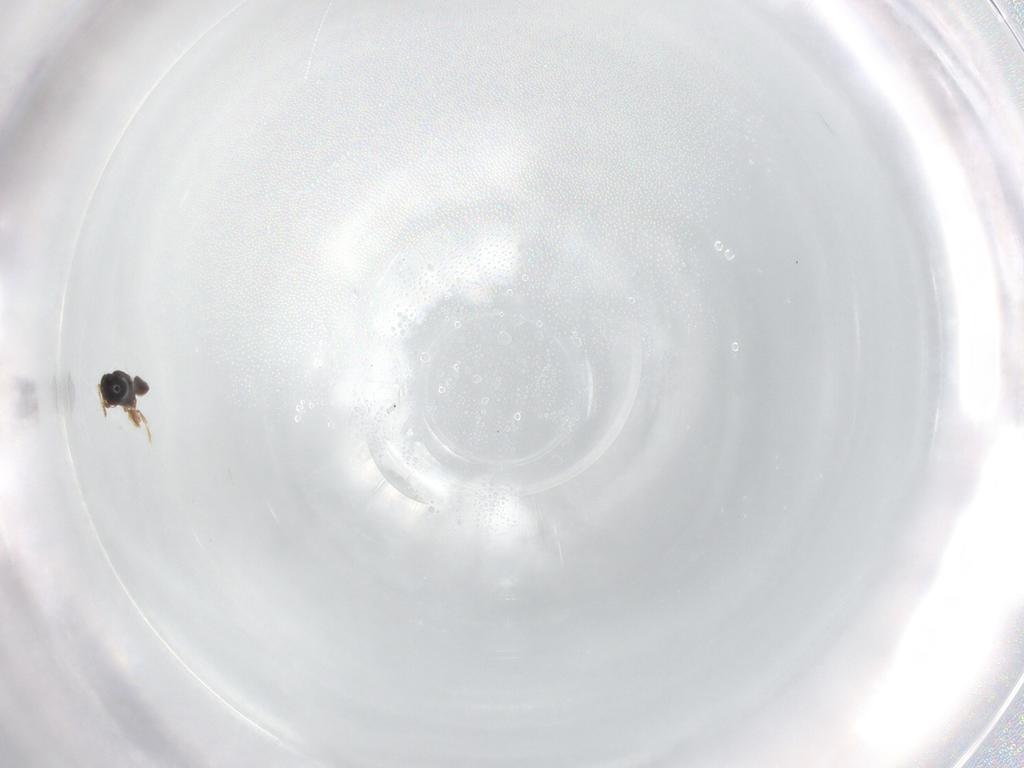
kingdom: Animalia
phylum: Arthropoda
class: Insecta
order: Hymenoptera
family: Scelionidae
